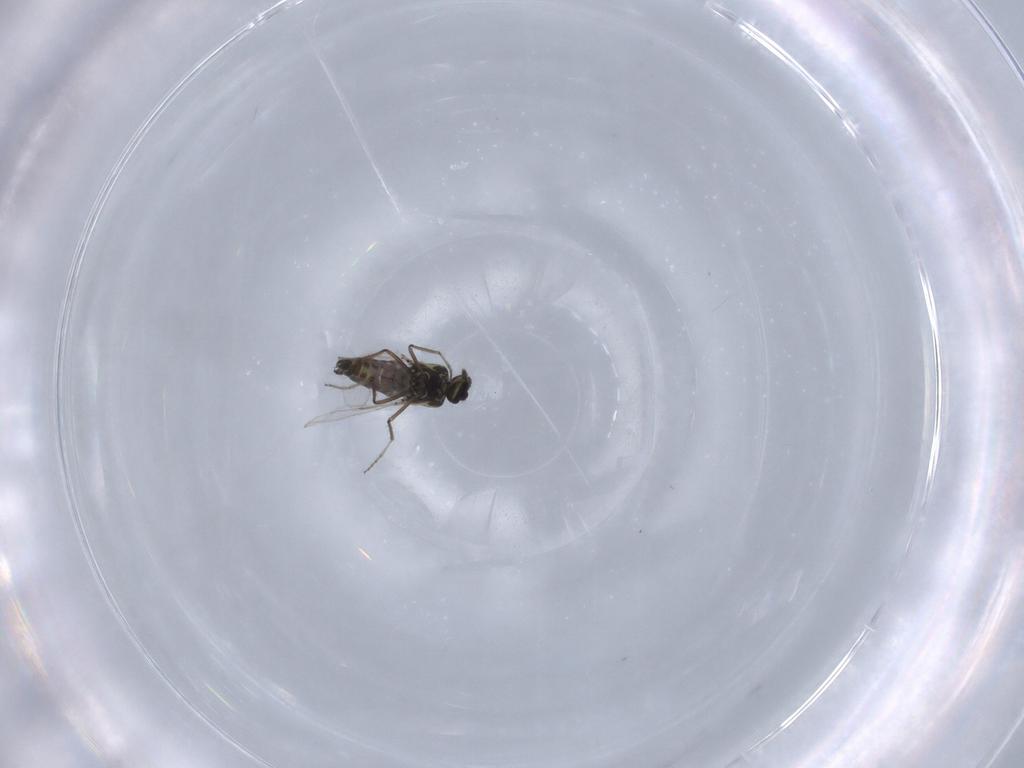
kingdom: Animalia
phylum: Arthropoda
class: Insecta
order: Diptera
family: Ceratopogonidae
